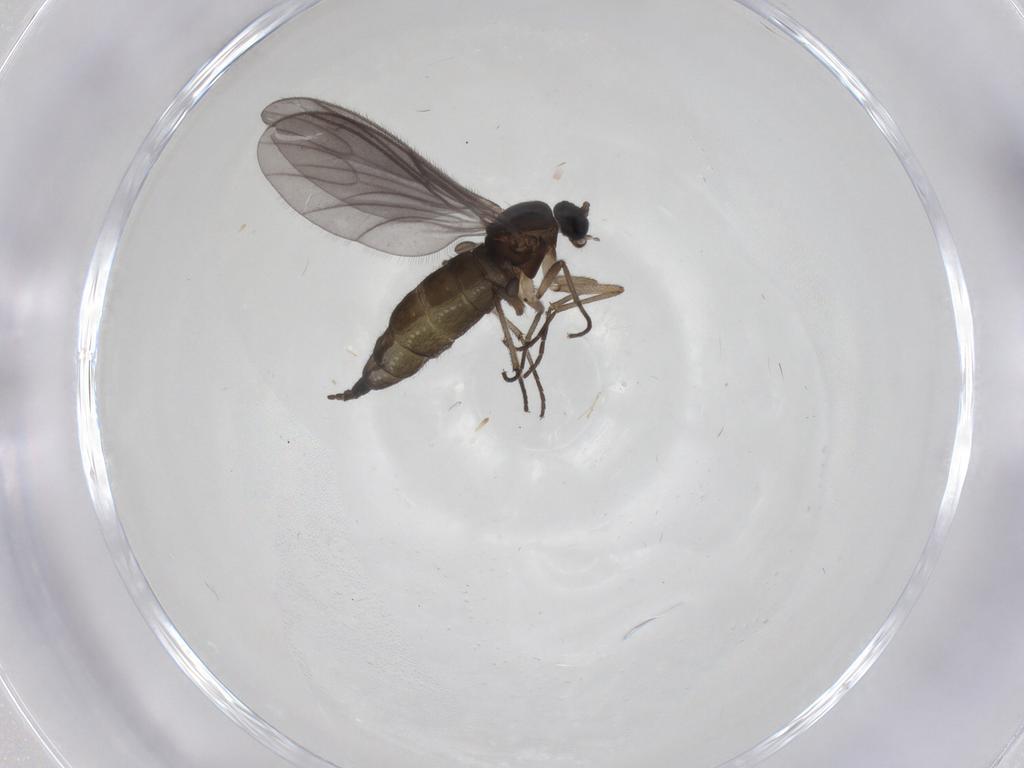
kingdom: Animalia
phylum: Arthropoda
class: Insecta
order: Diptera
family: Sciaridae
